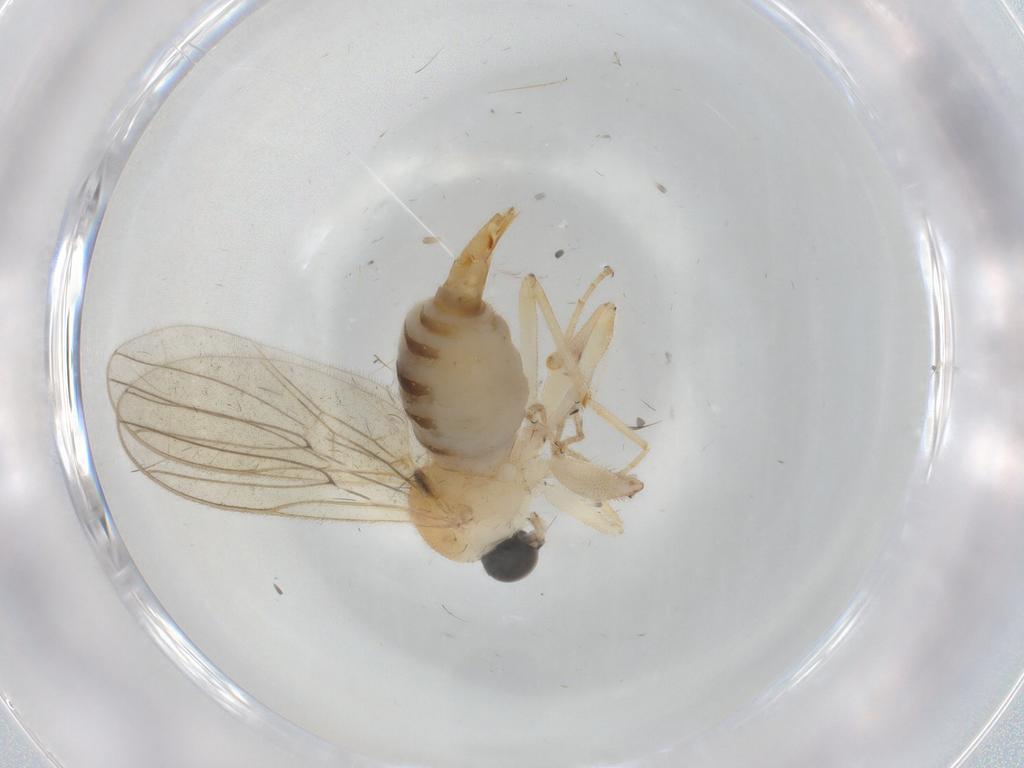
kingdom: Animalia
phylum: Arthropoda
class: Insecta
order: Diptera
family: Hybotidae
